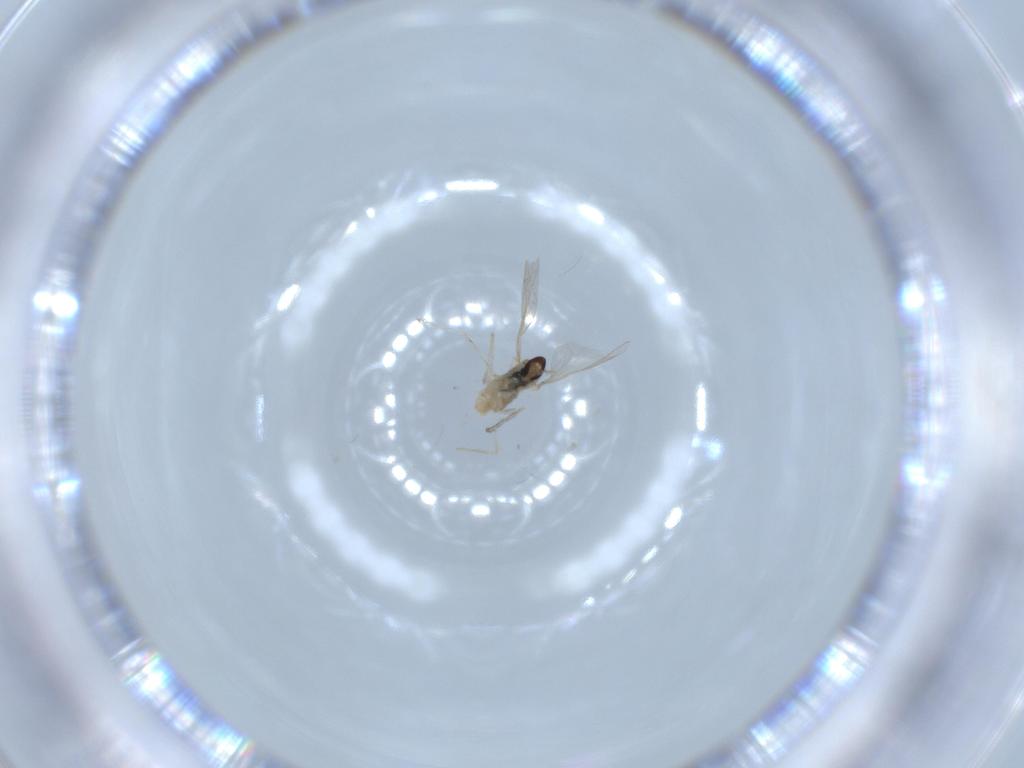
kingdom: Animalia
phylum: Arthropoda
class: Insecta
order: Diptera
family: Cecidomyiidae
